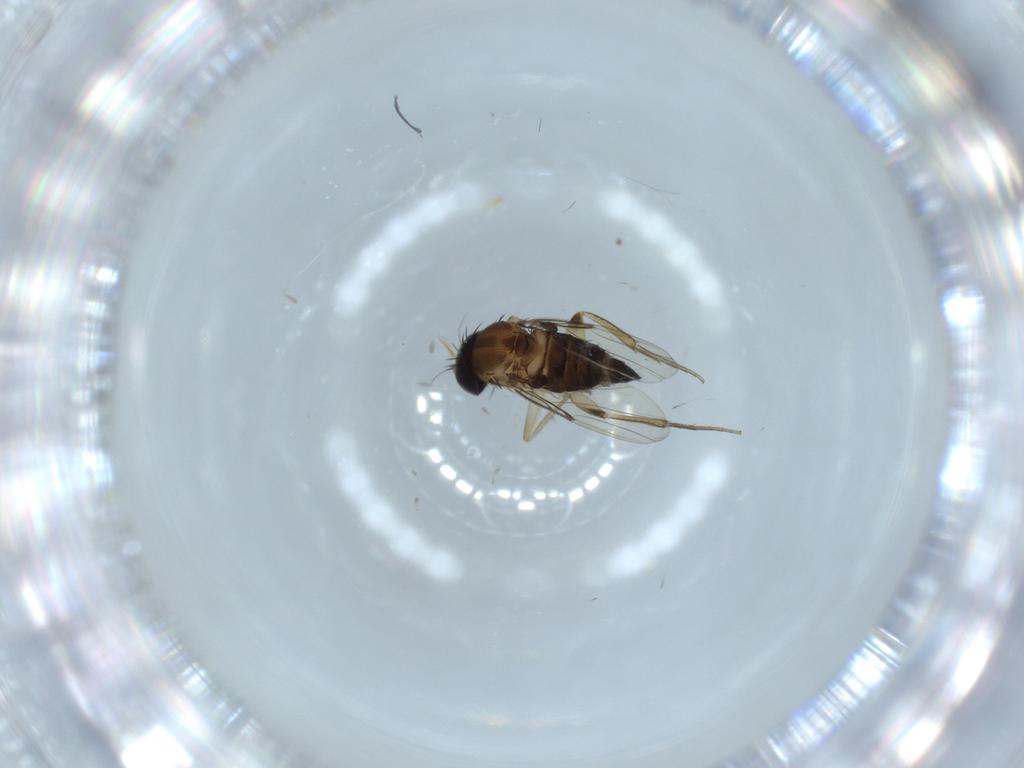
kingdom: Animalia
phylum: Arthropoda
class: Insecta
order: Diptera
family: Phoridae
